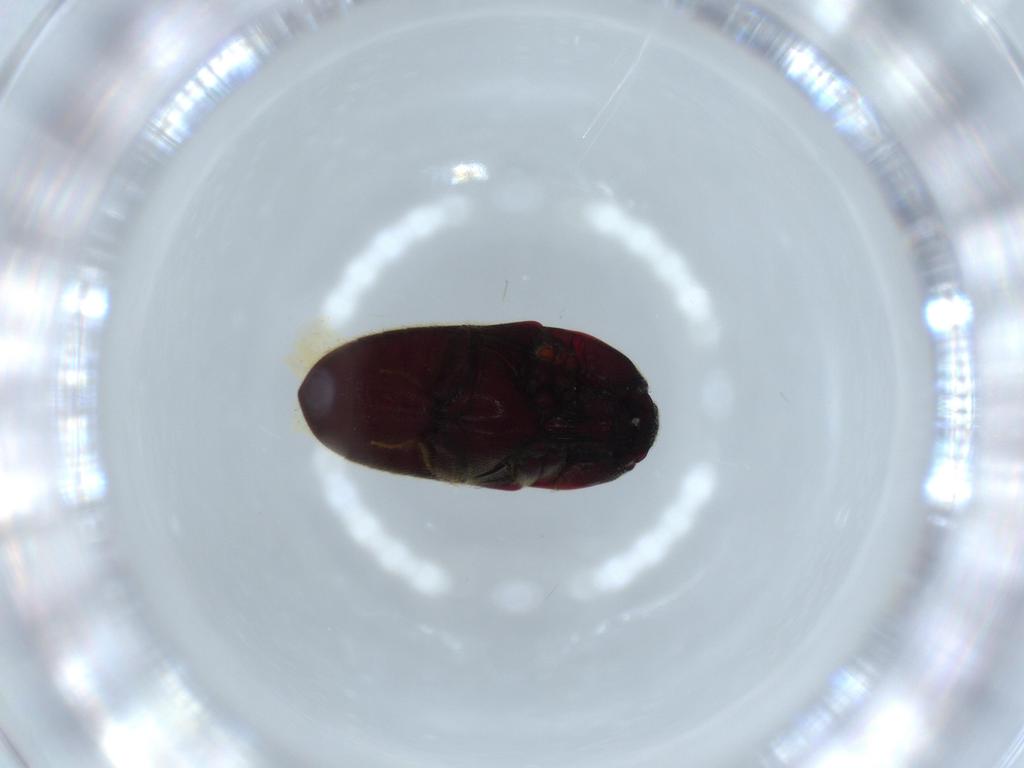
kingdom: Animalia
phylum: Arthropoda
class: Insecta
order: Coleoptera
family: Throscidae
